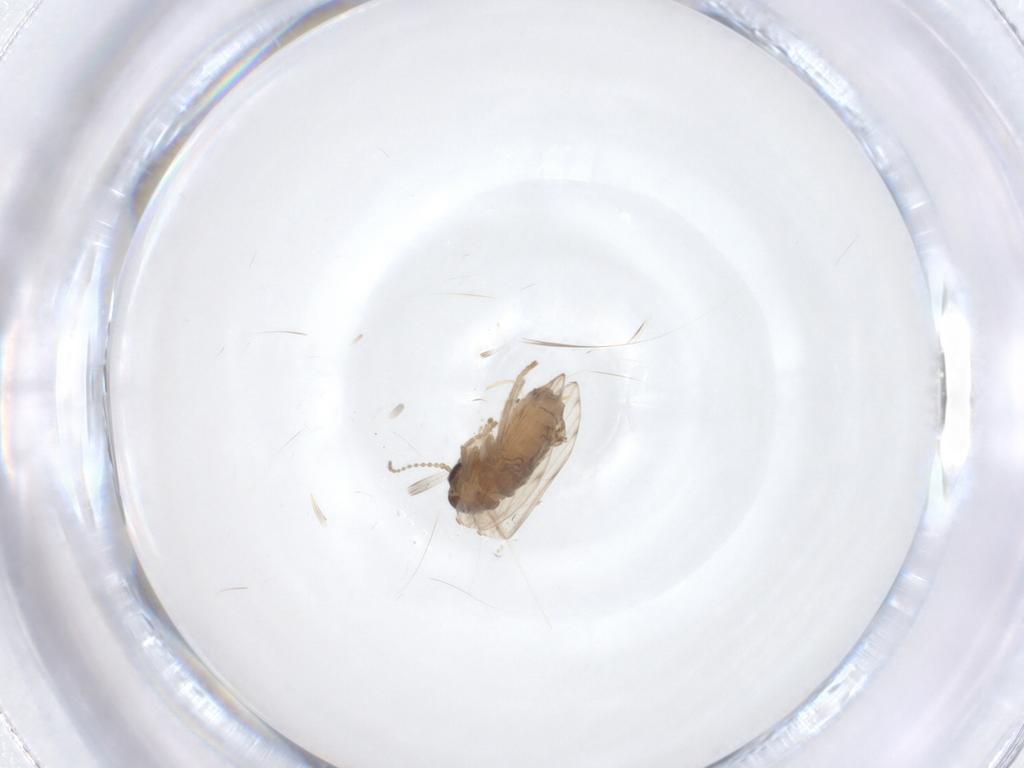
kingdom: Animalia
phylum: Arthropoda
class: Insecta
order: Diptera
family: Psychodidae
